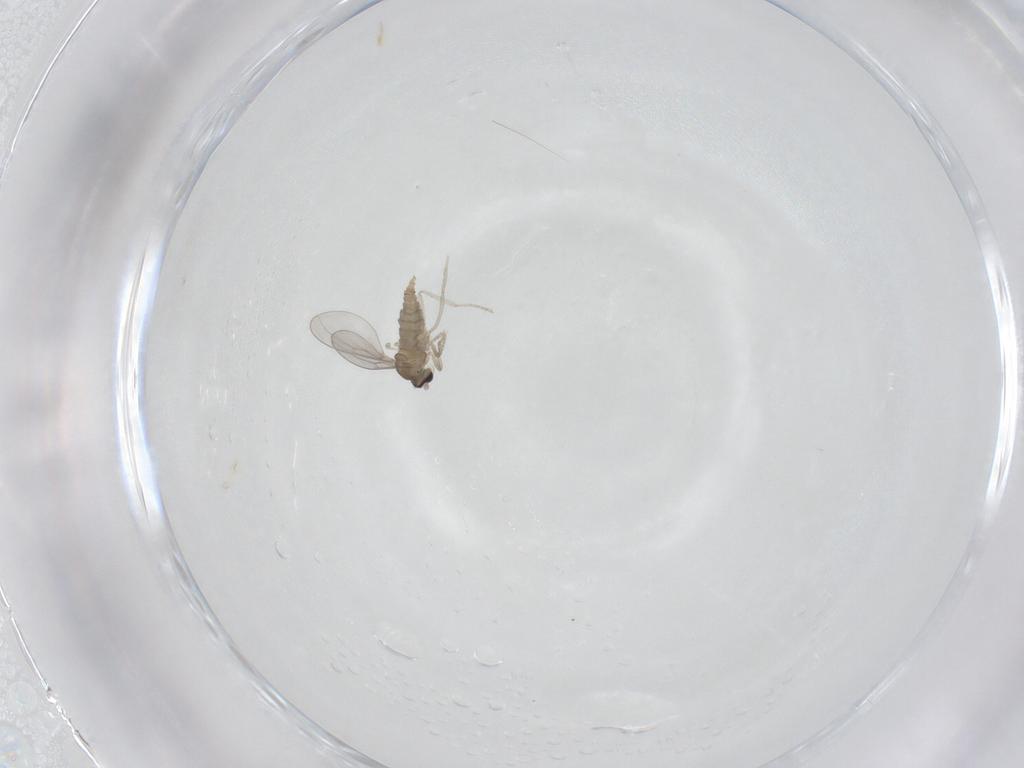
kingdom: Animalia
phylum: Arthropoda
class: Insecta
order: Diptera
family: Cecidomyiidae
